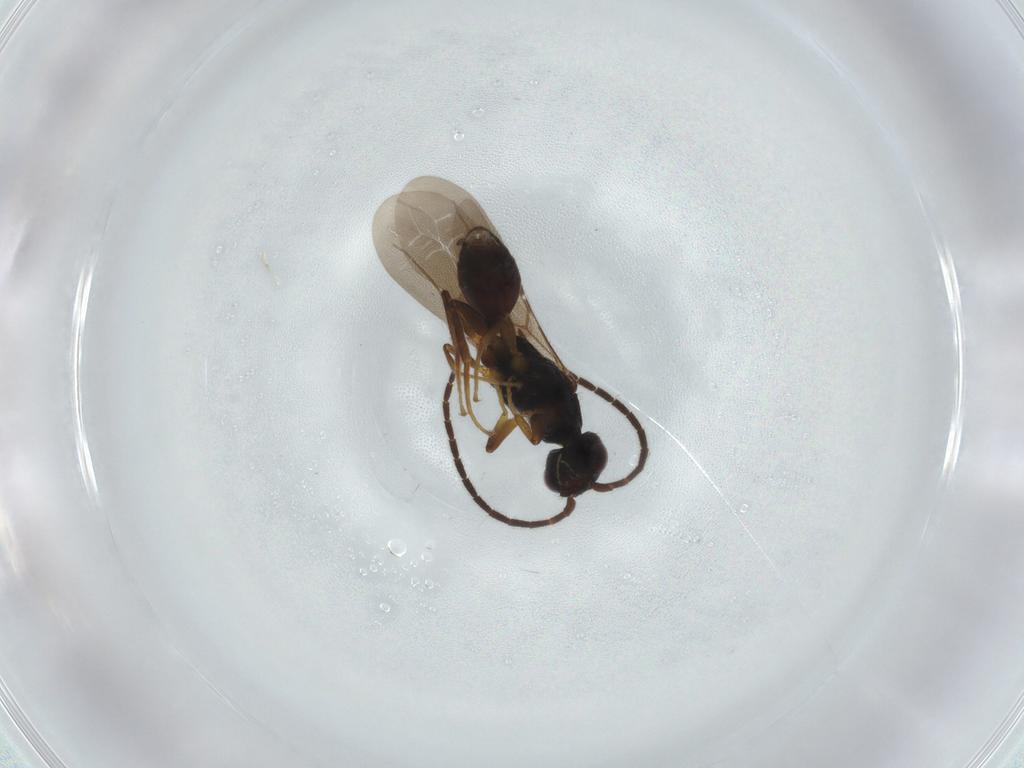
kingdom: Animalia
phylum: Arthropoda
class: Insecta
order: Hymenoptera
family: Bethylidae
